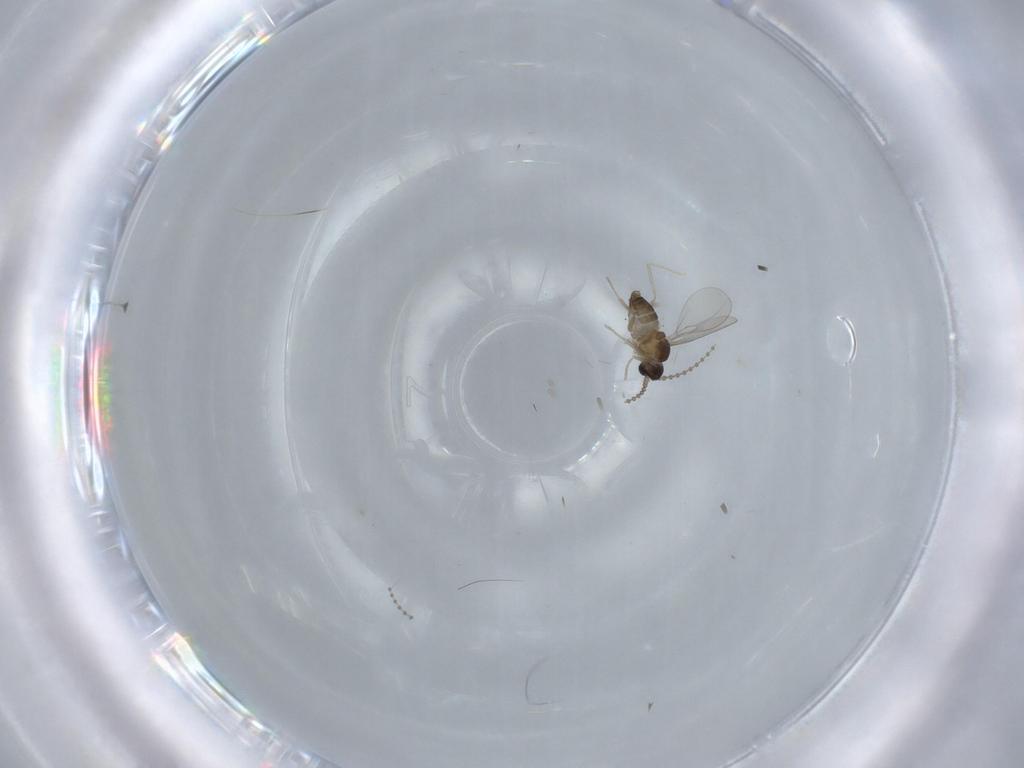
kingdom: Animalia
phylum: Arthropoda
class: Insecta
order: Diptera
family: Cecidomyiidae
